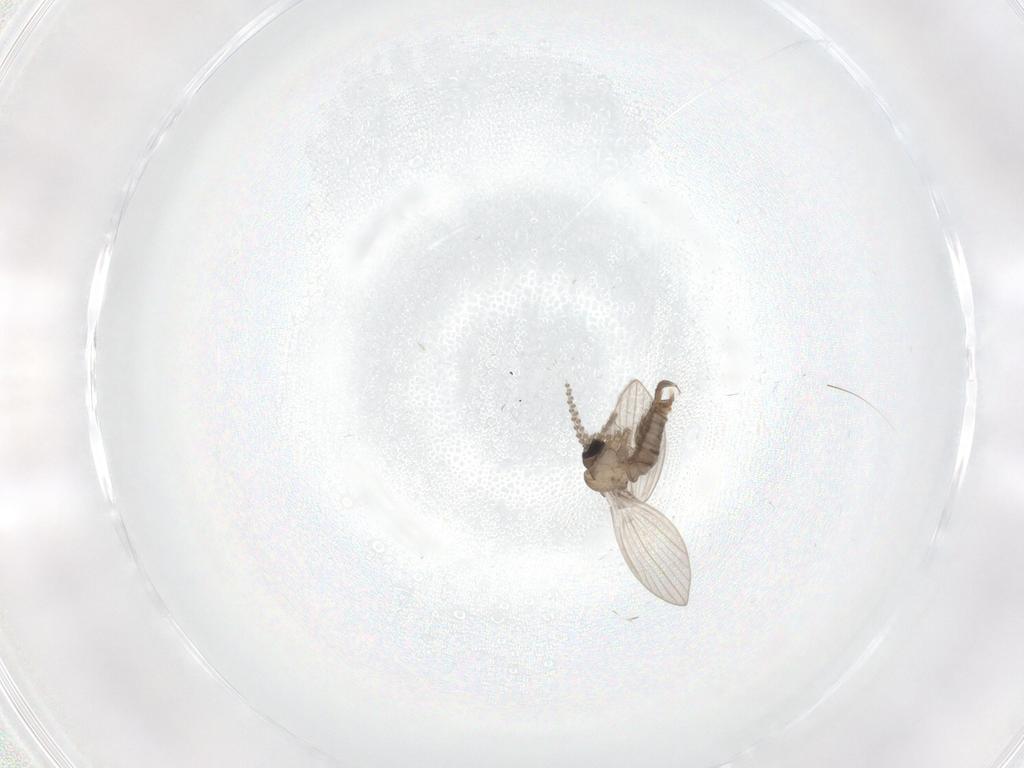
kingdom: Animalia
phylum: Arthropoda
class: Insecta
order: Diptera
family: Psychodidae
